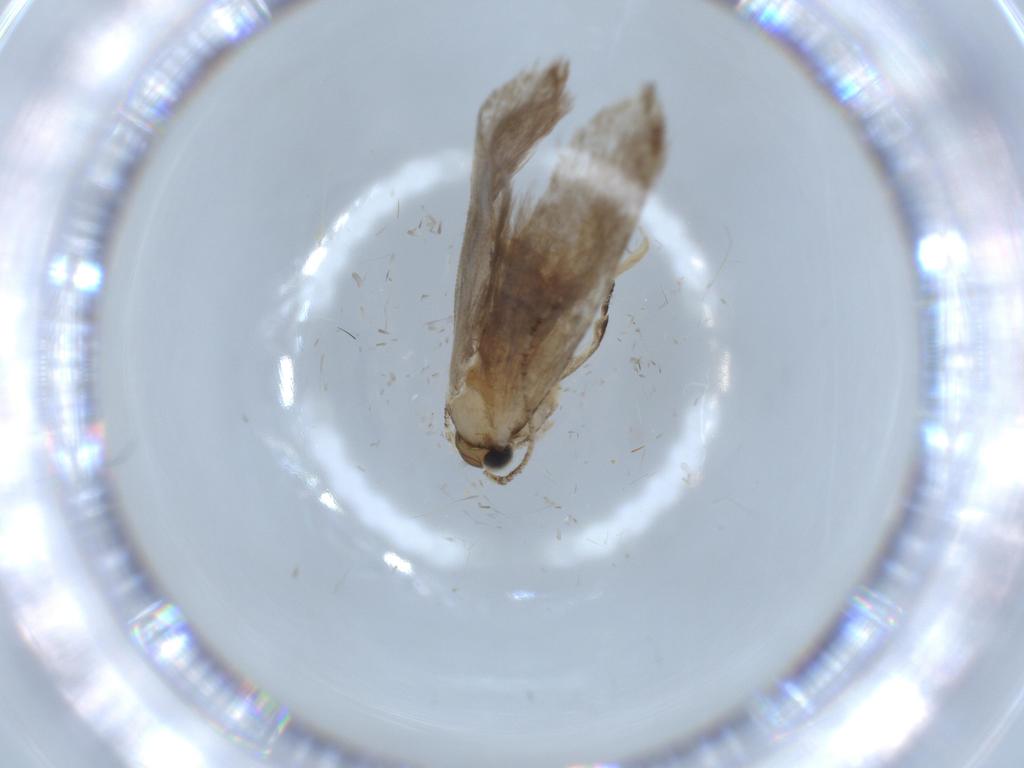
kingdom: Animalia
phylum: Arthropoda
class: Insecta
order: Lepidoptera
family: Tineidae
